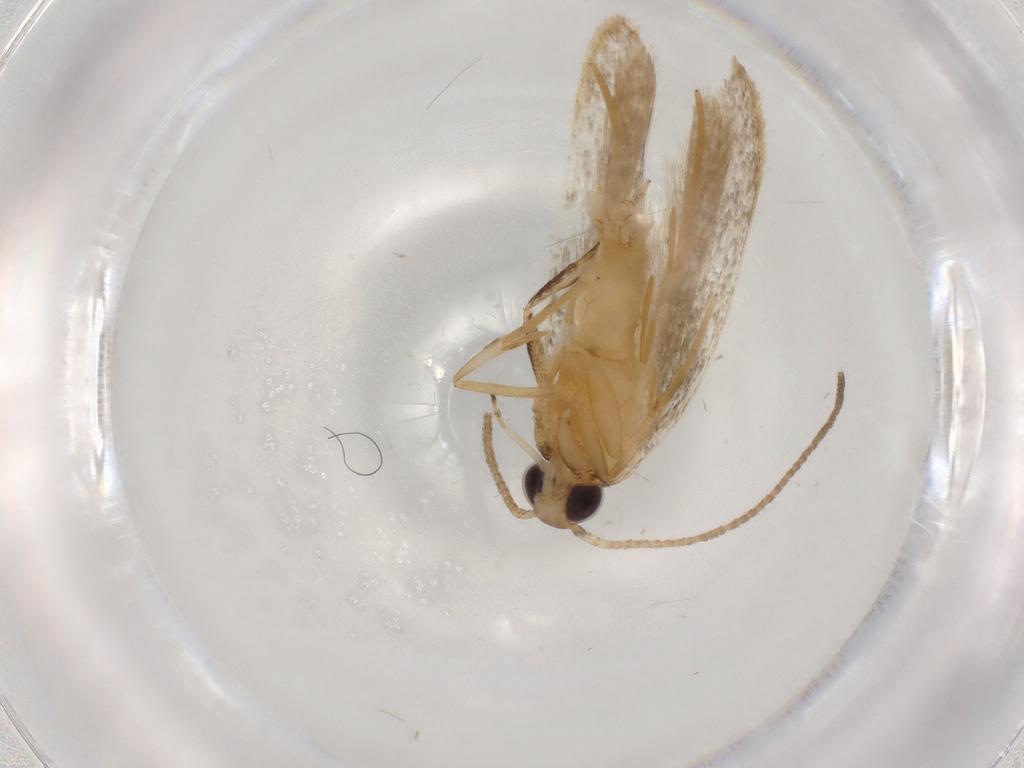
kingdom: Animalia
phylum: Arthropoda
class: Insecta
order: Lepidoptera
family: Autostichidae
